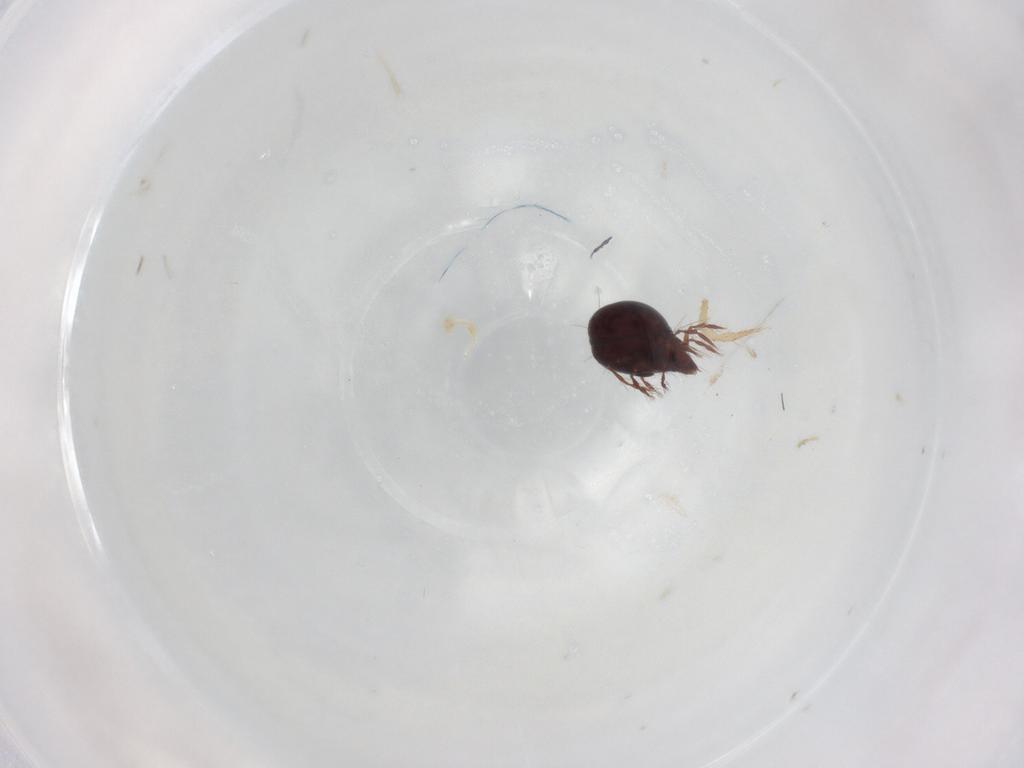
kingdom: Animalia
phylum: Arthropoda
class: Arachnida
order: Sarcoptiformes
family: Ceratoppiidae
